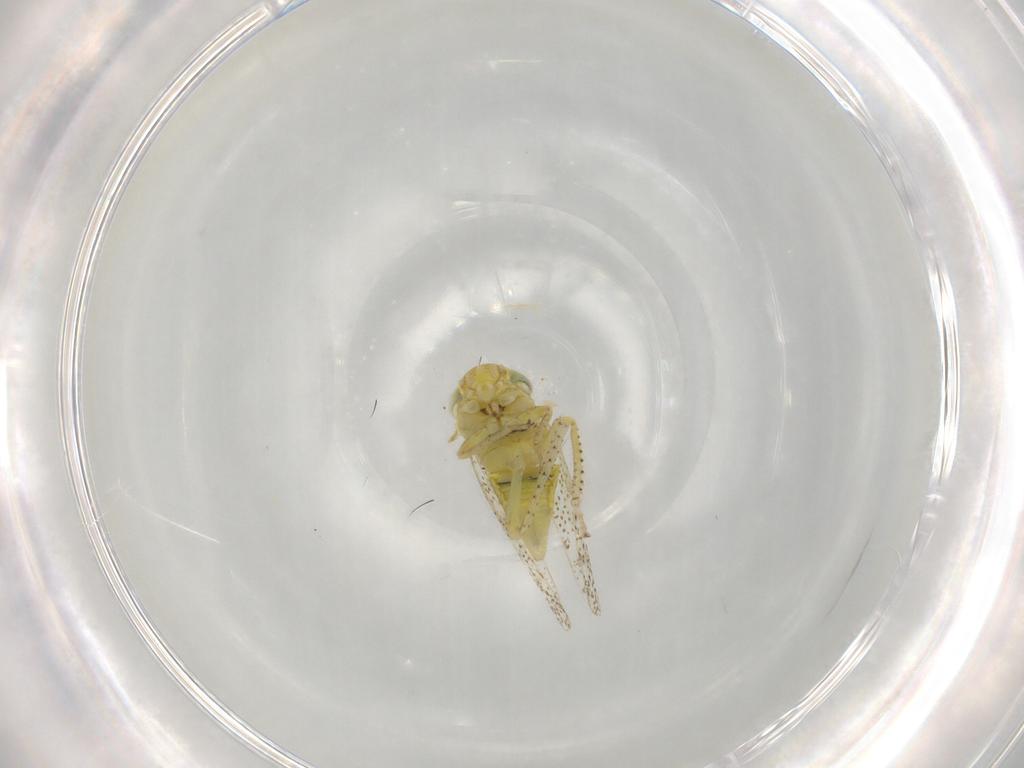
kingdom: Animalia
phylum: Arthropoda
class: Insecta
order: Hemiptera
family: Cicadellidae
